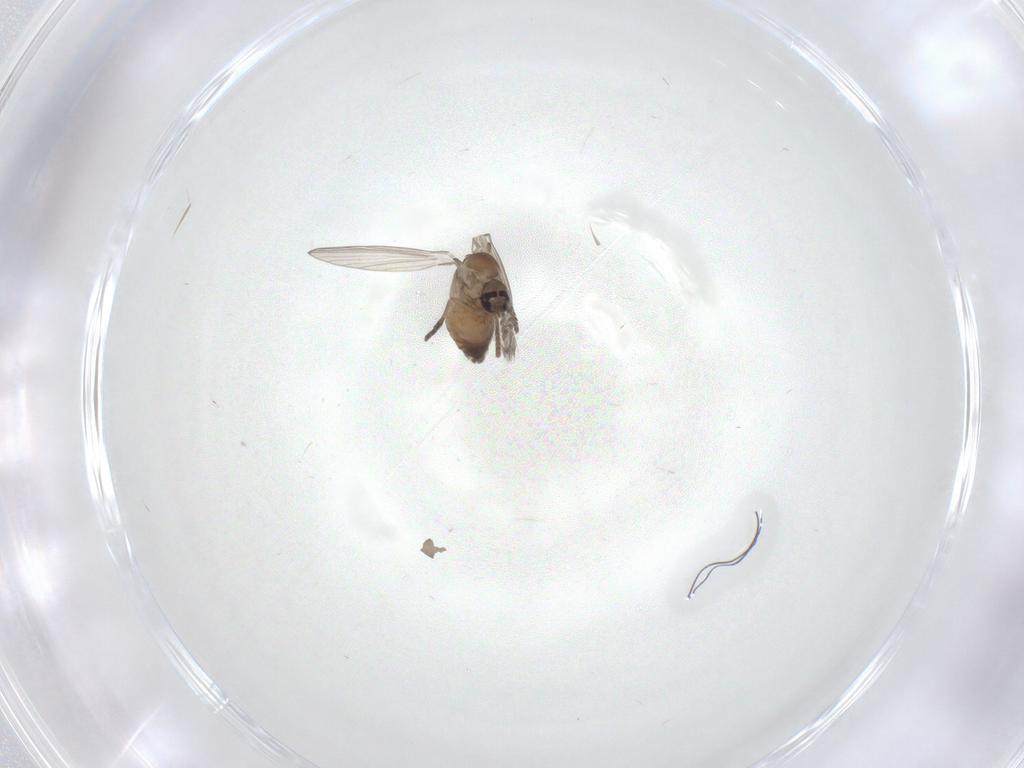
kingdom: Animalia
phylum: Arthropoda
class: Insecta
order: Diptera
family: Psychodidae
